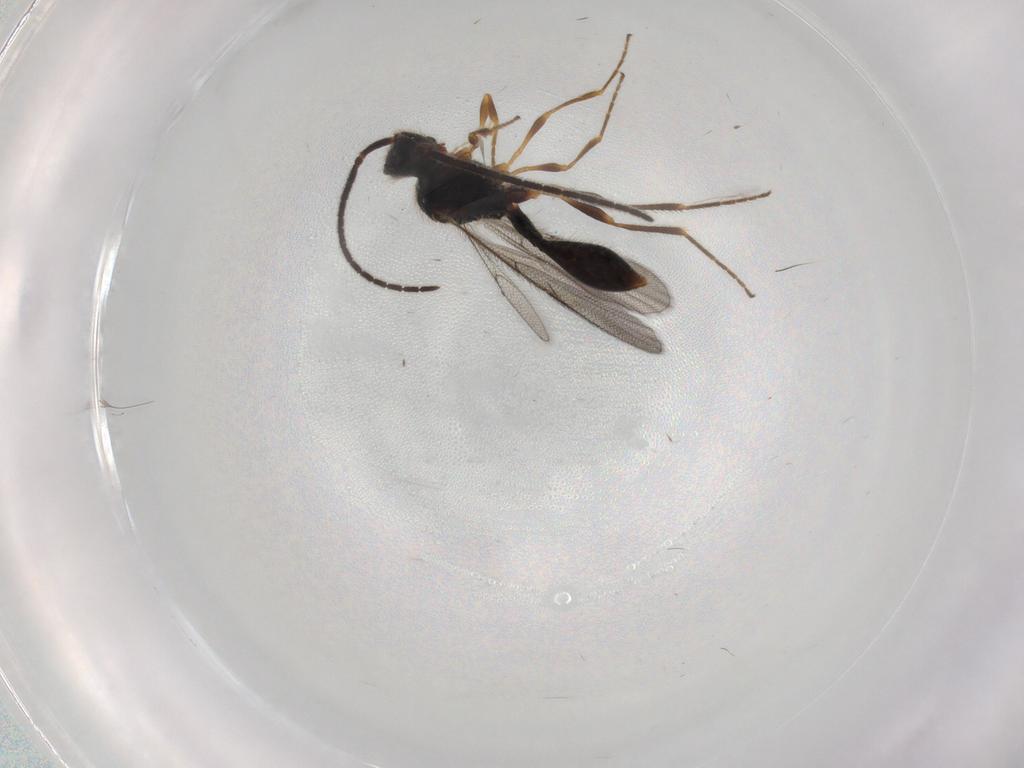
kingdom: Animalia
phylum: Arthropoda
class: Insecta
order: Hymenoptera
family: Diapriidae
